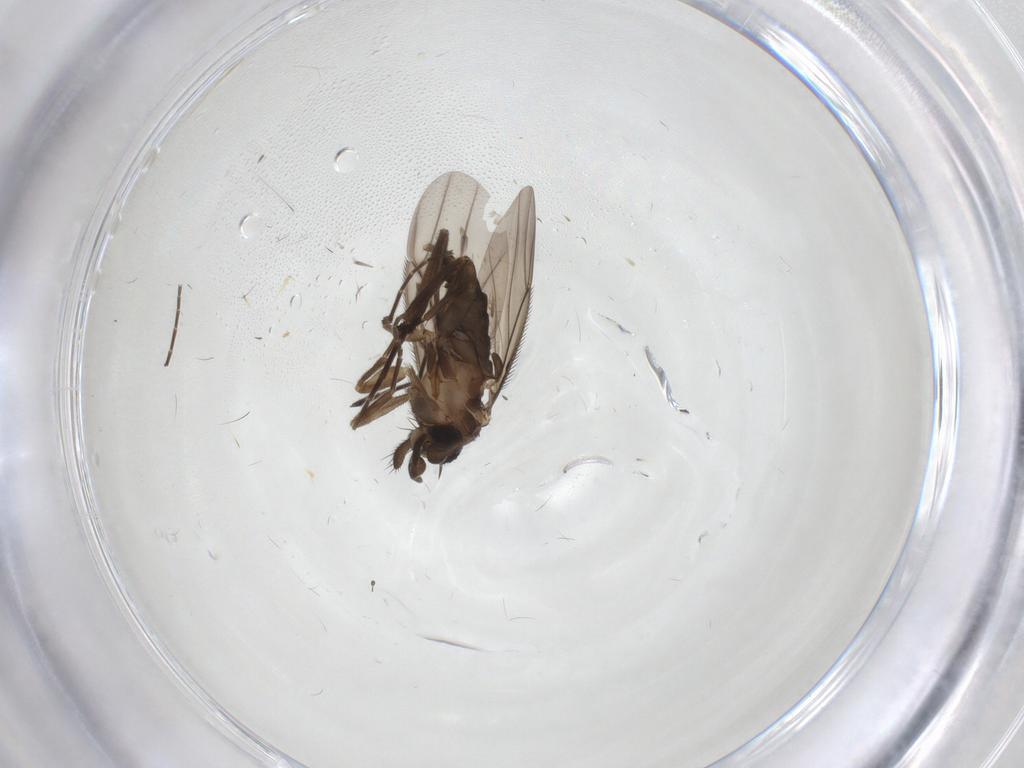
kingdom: Animalia
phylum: Arthropoda
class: Insecta
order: Diptera
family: Phoridae
